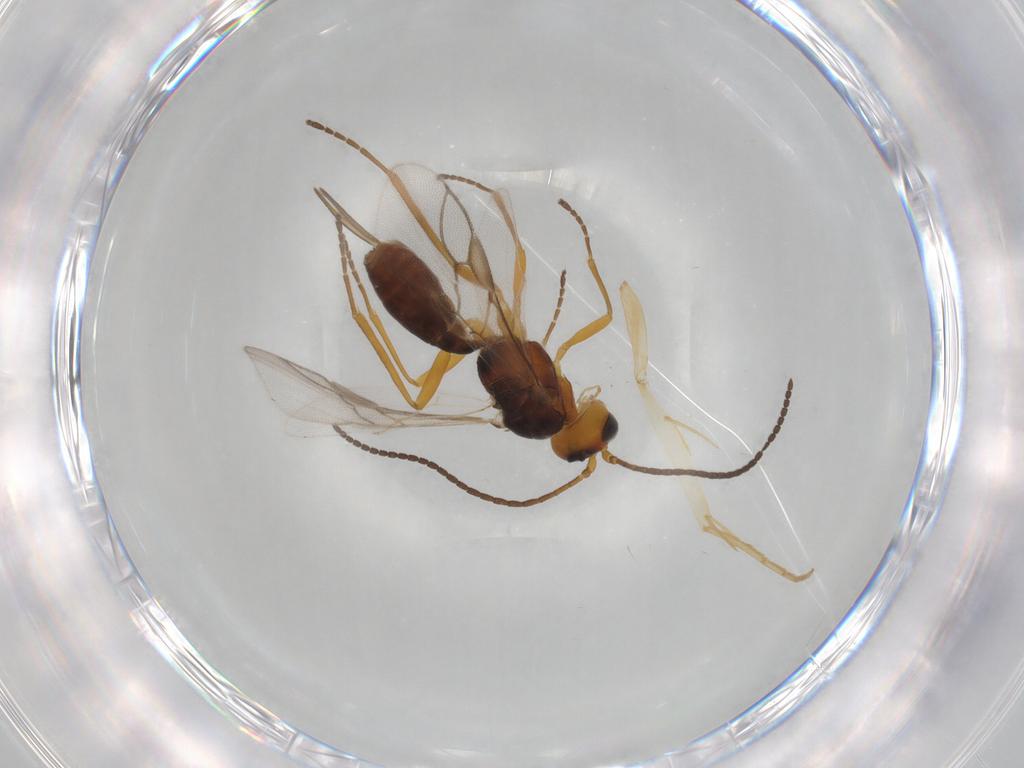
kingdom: Animalia
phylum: Arthropoda
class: Insecta
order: Hymenoptera
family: Braconidae
